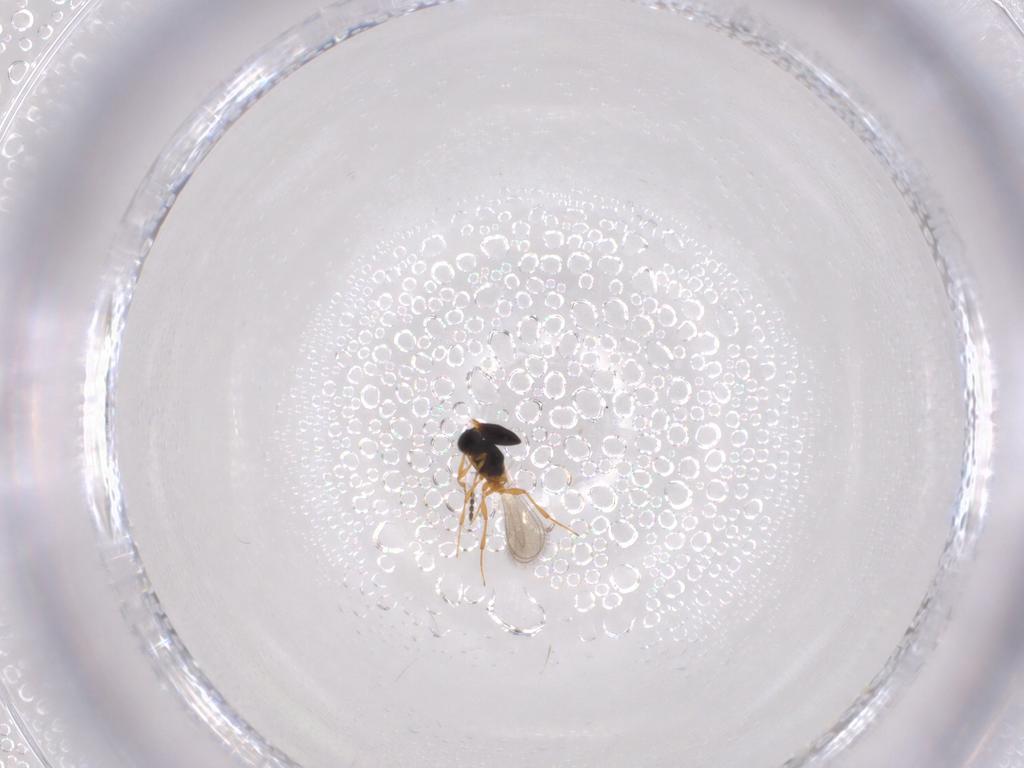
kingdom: Animalia
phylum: Arthropoda
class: Insecta
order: Hymenoptera
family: Platygastridae
